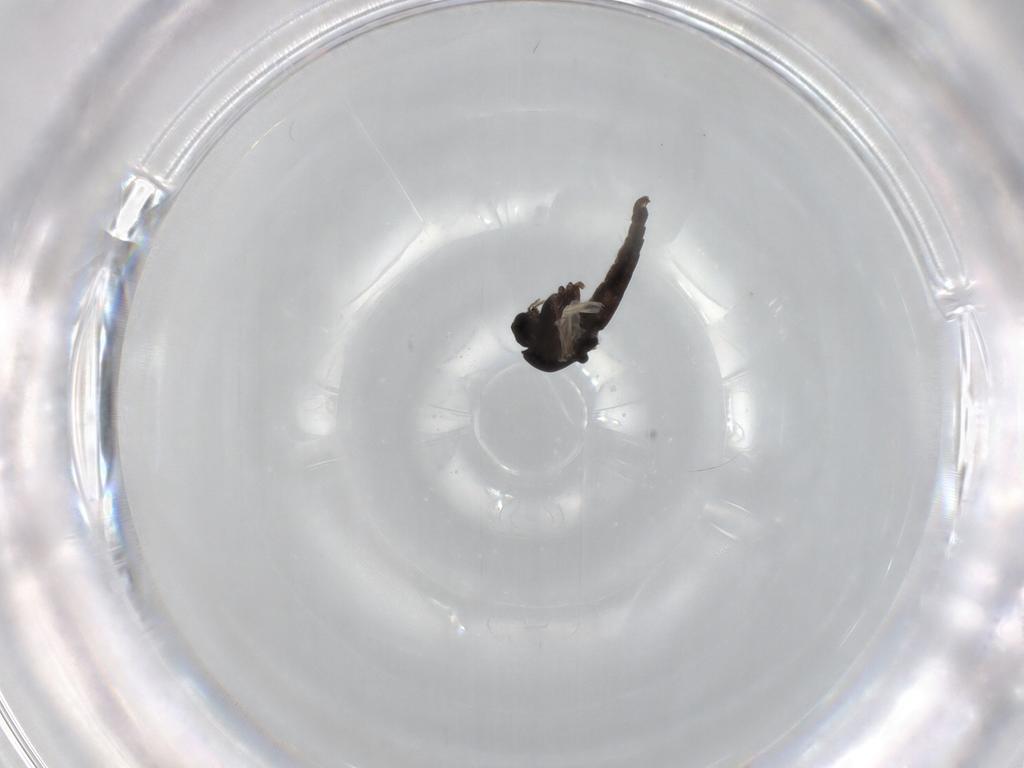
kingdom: Animalia
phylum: Arthropoda
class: Insecta
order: Diptera
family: Chironomidae
